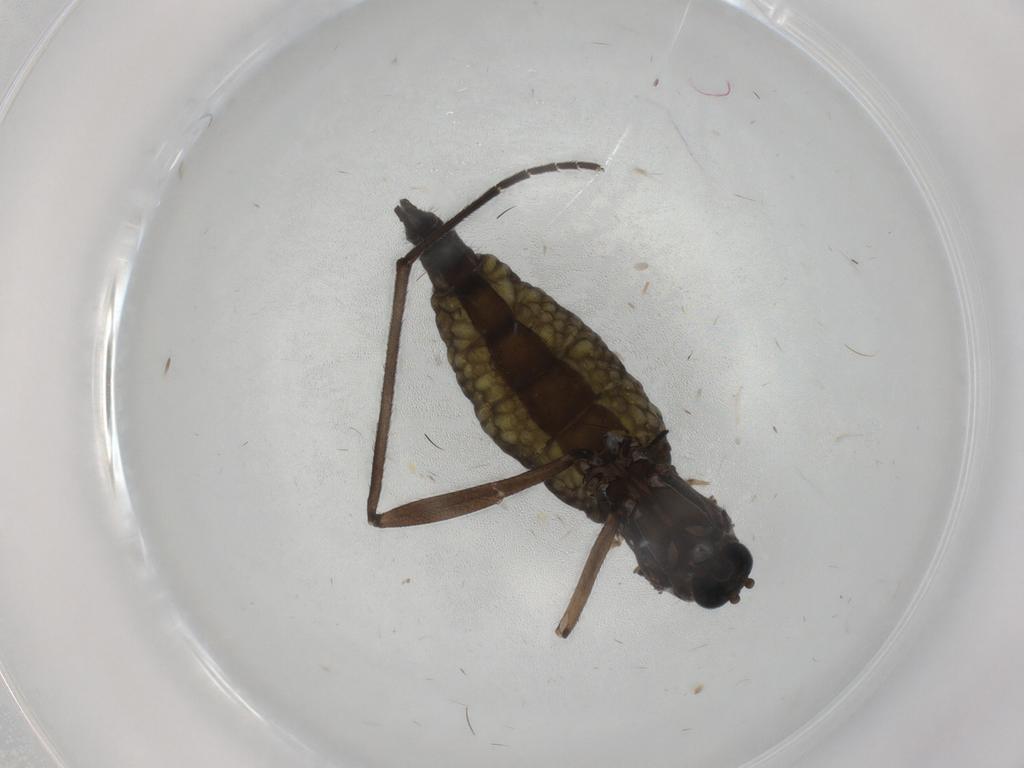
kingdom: Animalia
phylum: Arthropoda
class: Insecta
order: Diptera
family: Sciaridae
